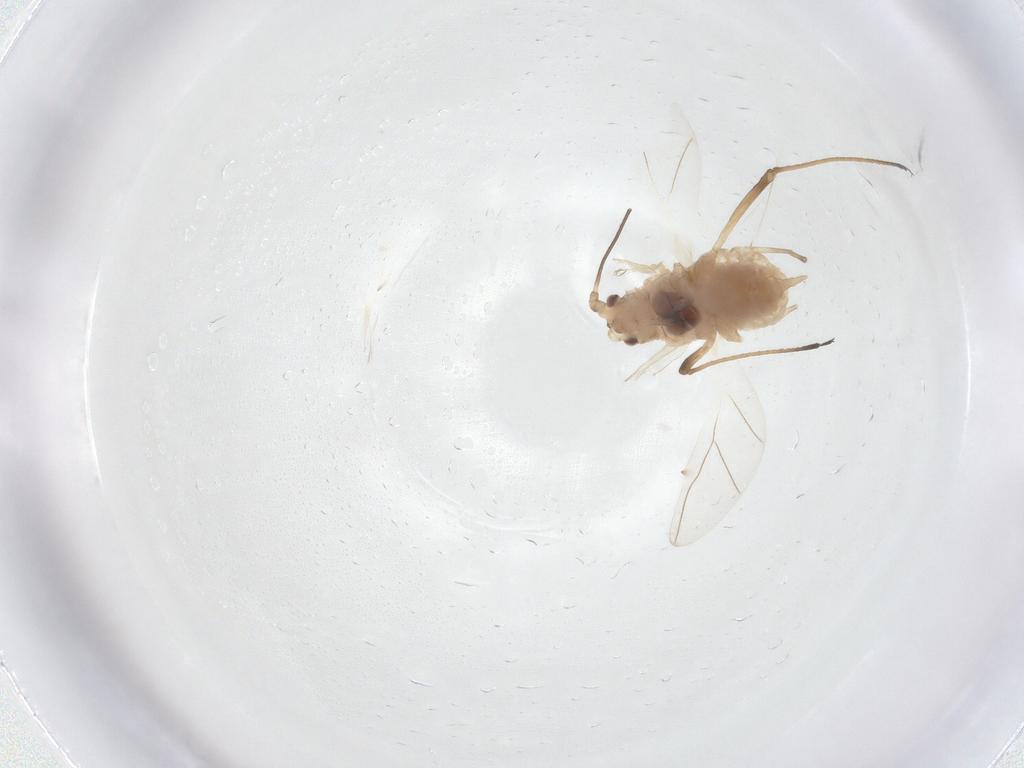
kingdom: Animalia
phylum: Arthropoda
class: Insecta
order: Hemiptera
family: Aphididae
